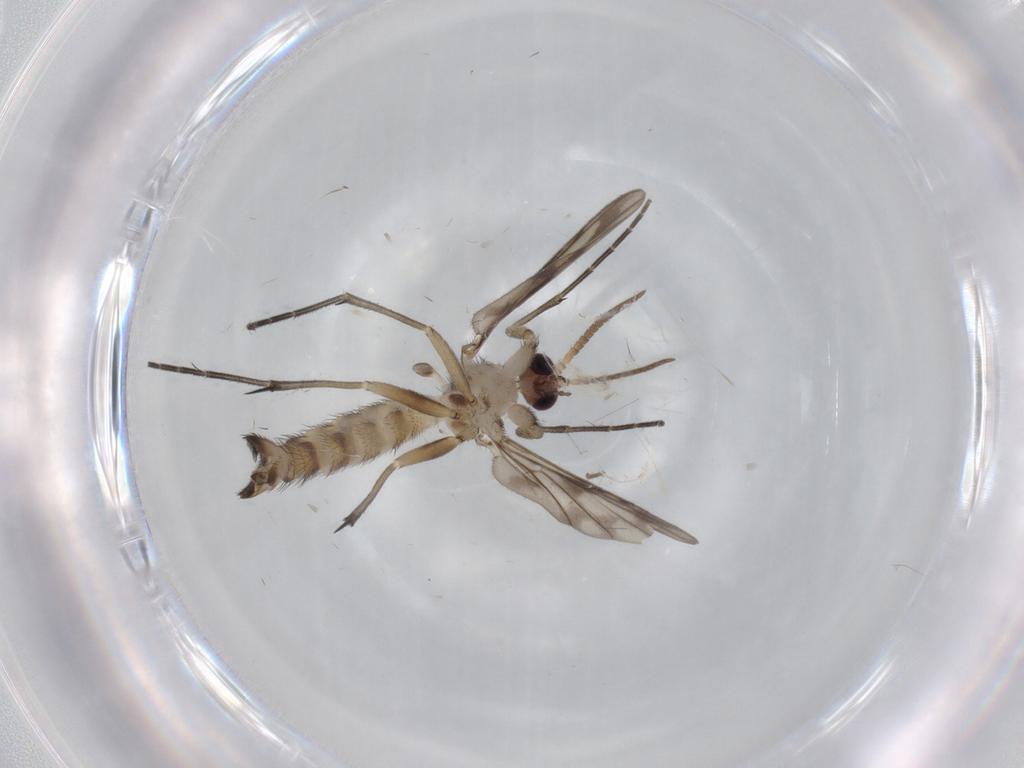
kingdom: Animalia
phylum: Arthropoda
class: Insecta
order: Diptera
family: Keroplatidae
